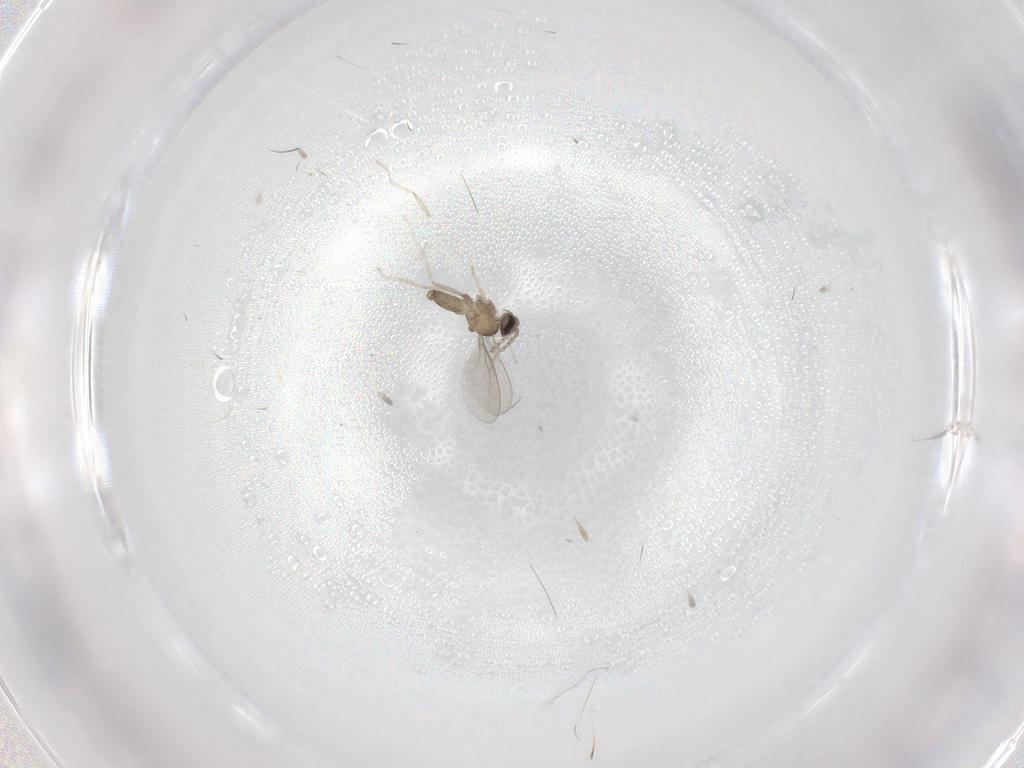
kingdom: Animalia
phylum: Arthropoda
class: Insecta
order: Diptera
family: Cecidomyiidae
